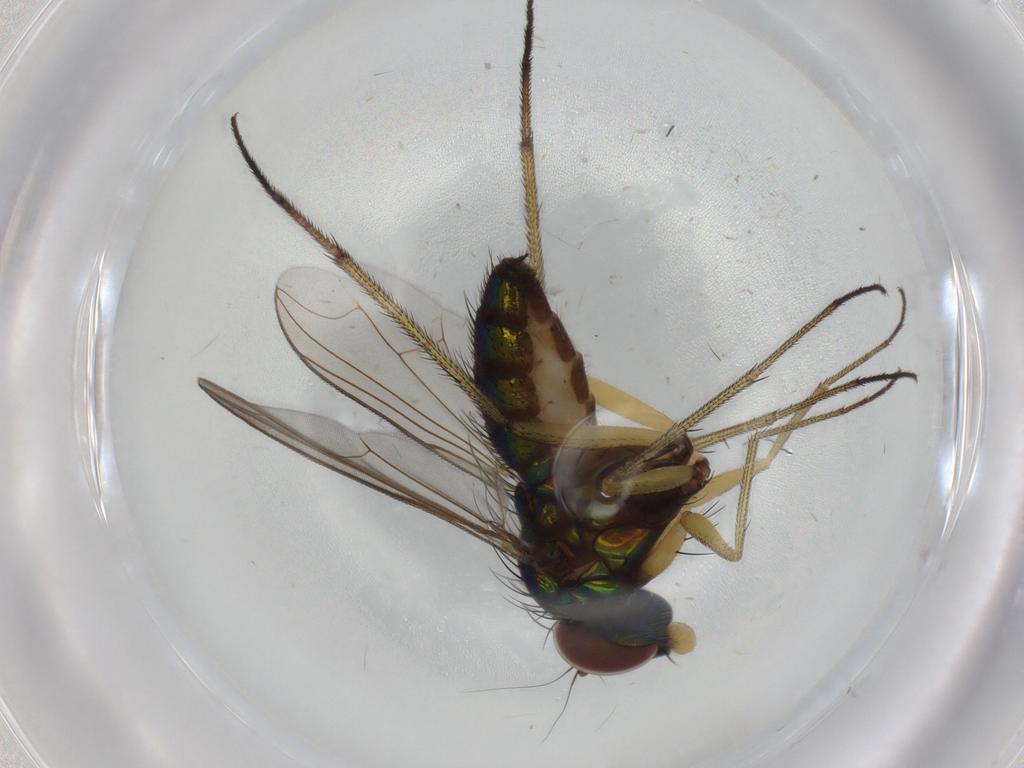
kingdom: Animalia
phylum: Arthropoda
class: Insecta
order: Diptera
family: Dolichopodidae
